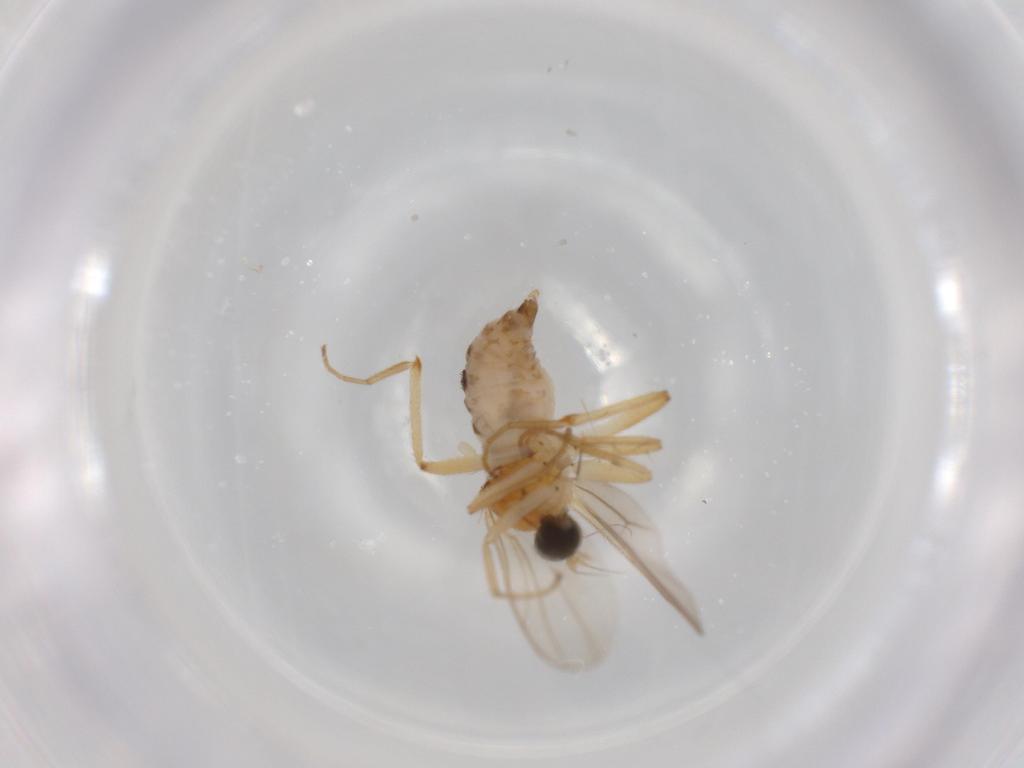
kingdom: Animalia
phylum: Arthropoda
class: Insecta
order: Diptera
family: Hybotidae
